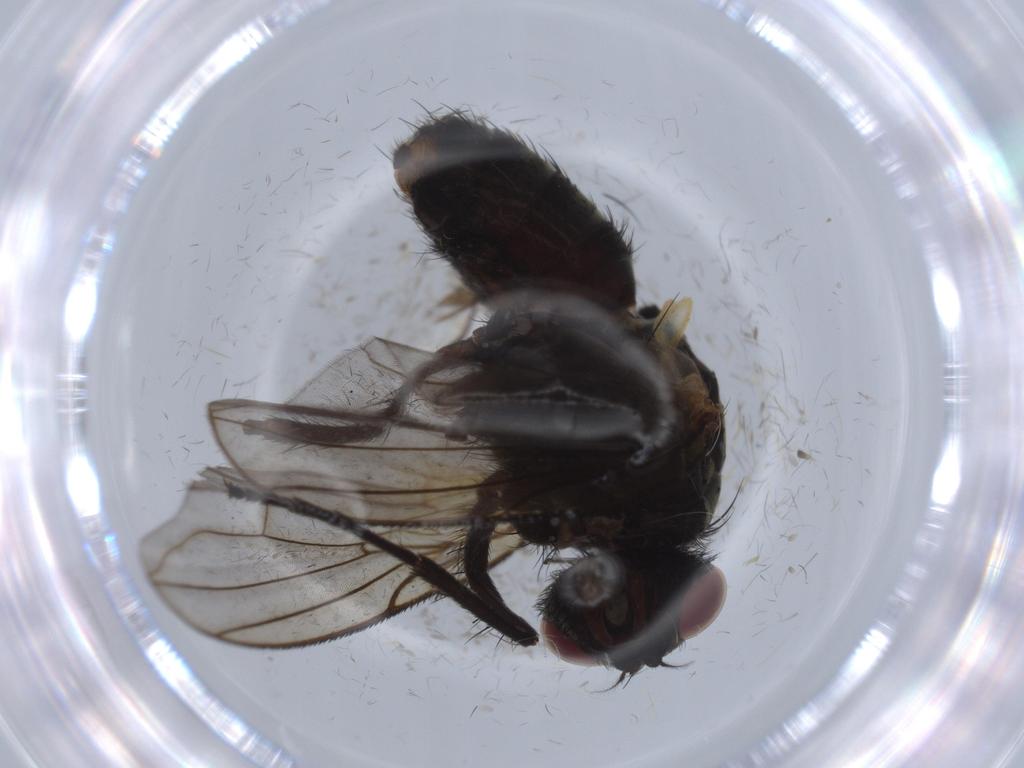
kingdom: Animalia
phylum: Arthropoda
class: Insecta
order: Diptera
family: Calliphoridae
